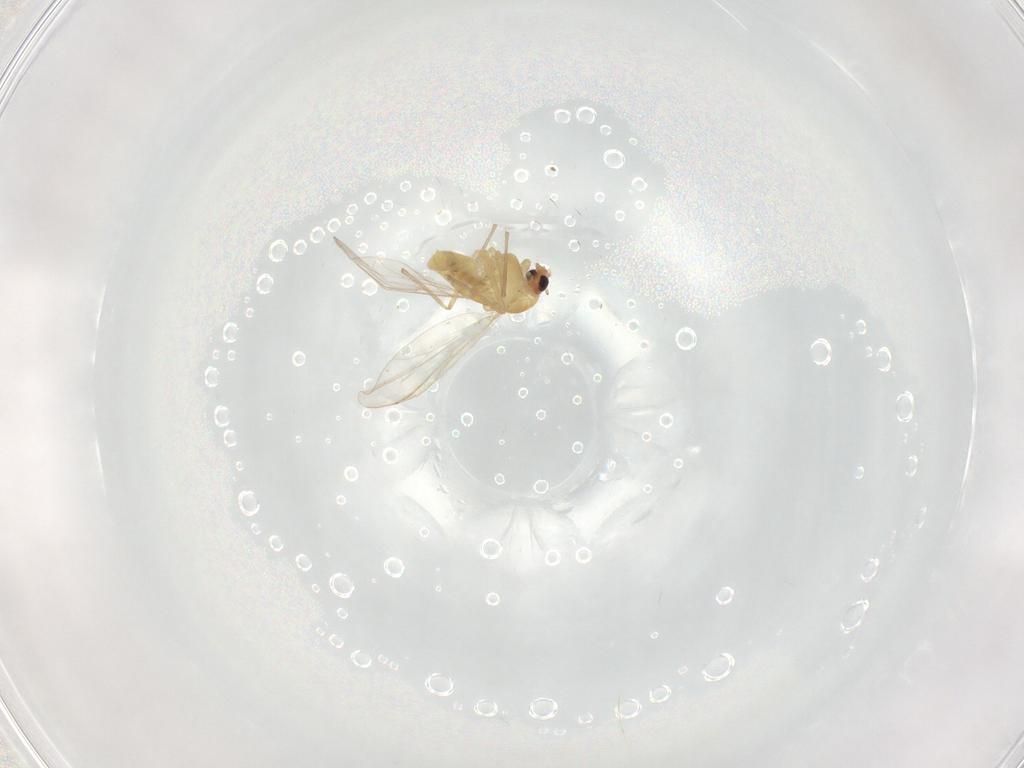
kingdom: Animalia
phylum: Arthropoda
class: Insecta
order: Diptera
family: Chironomidae
